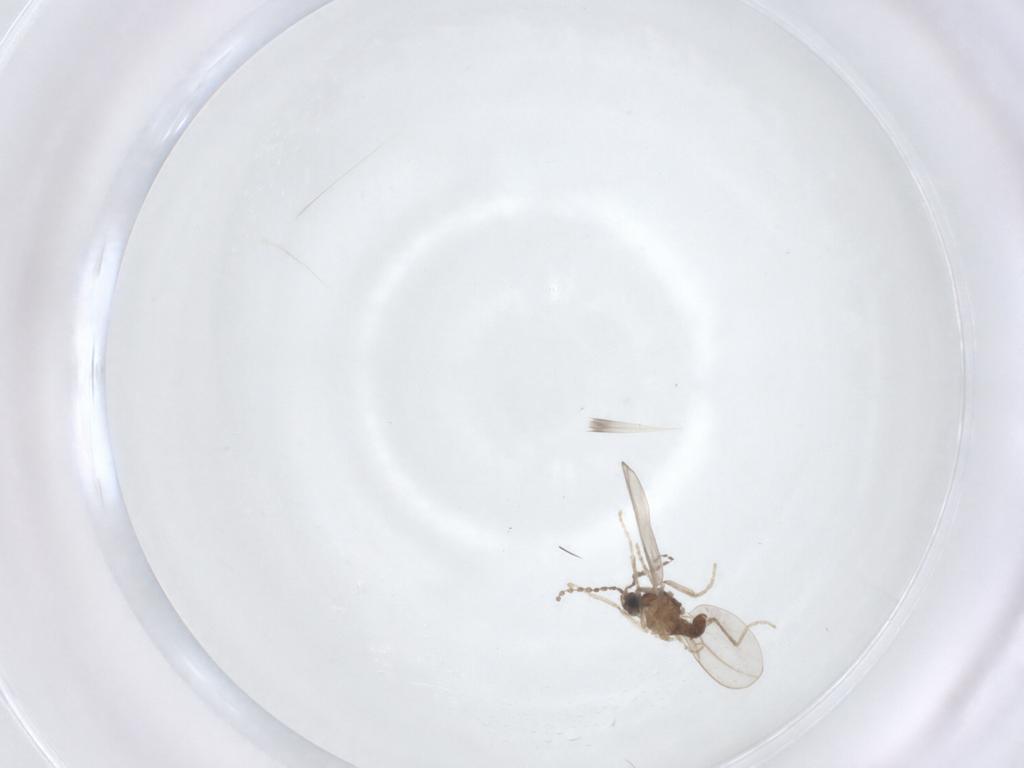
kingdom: Animalia
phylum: Arthropoda
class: Insecta
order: Diptera
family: Cecidomyiidae
